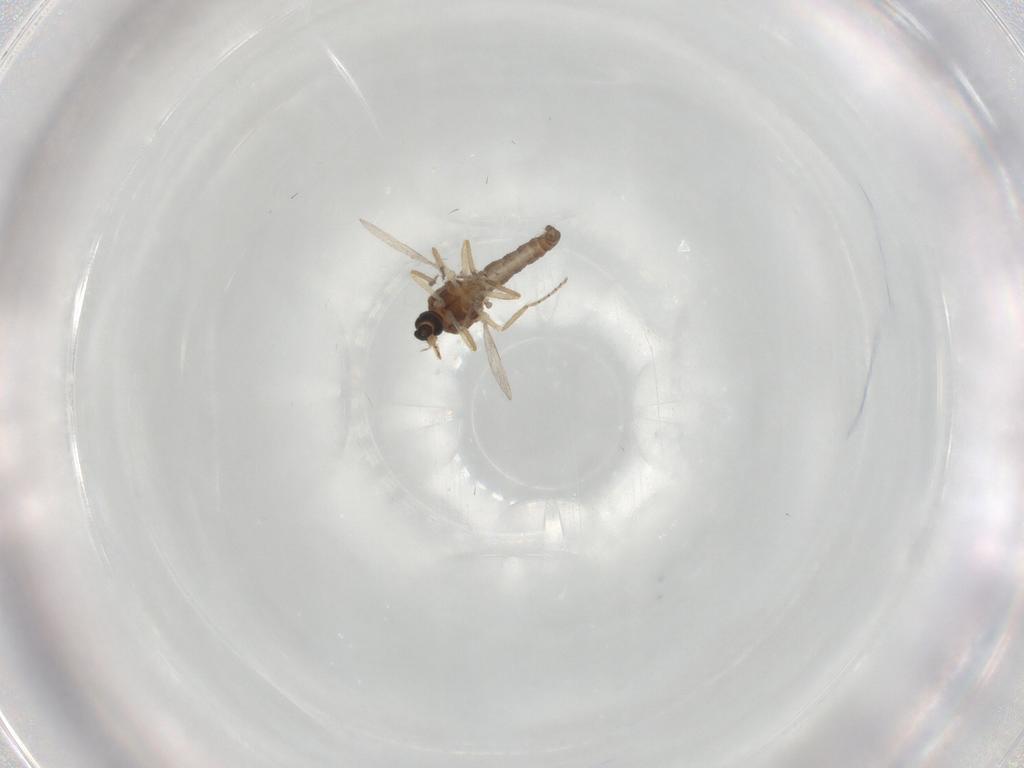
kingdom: Animalia
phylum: Arthropoda
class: Insecta
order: Diptera
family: Ceratopogonidae
